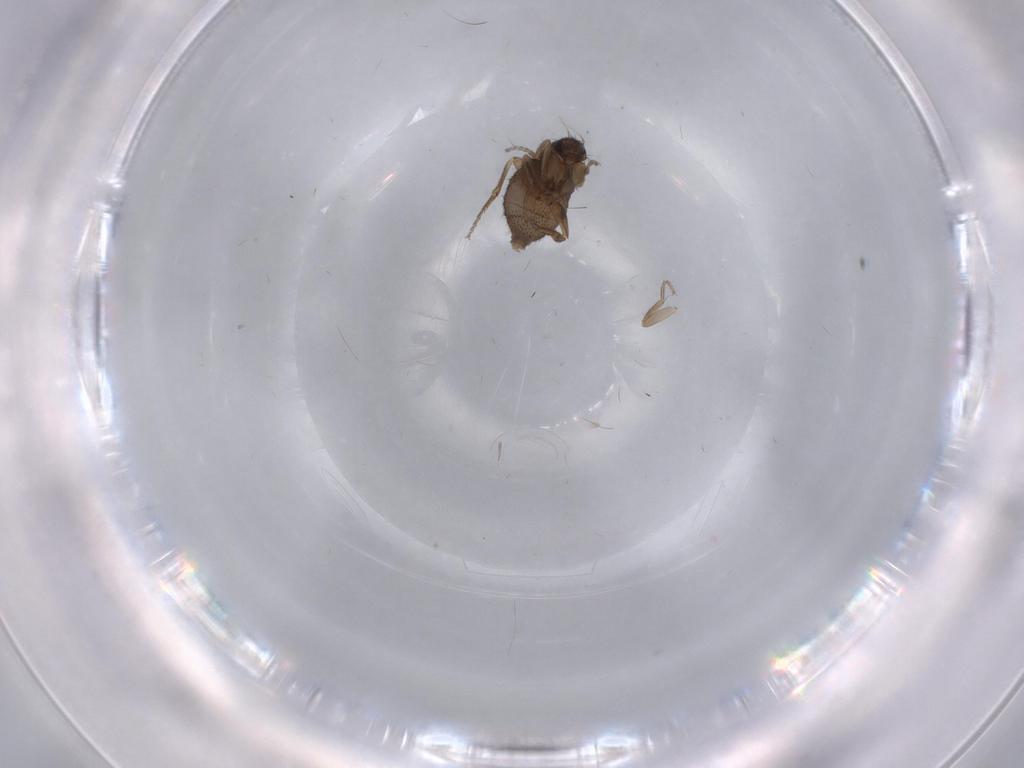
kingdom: Animalia
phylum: Arthropoda
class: Insecta
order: Diptera
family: Phoridae
